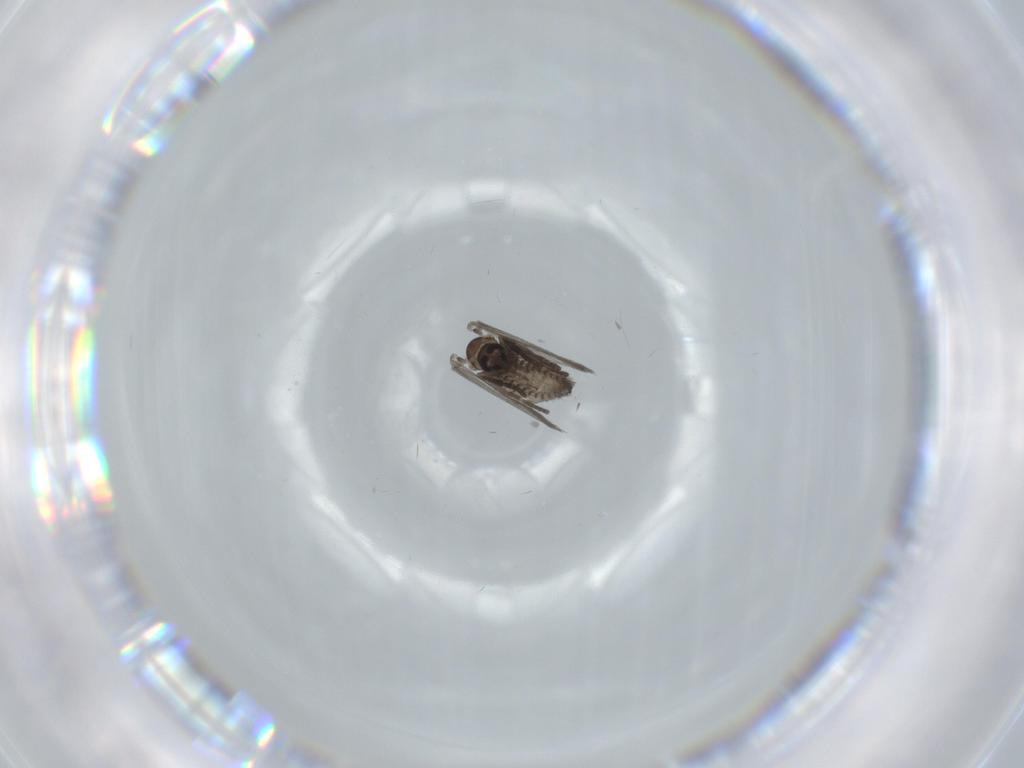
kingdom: Animalia
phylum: Arthropoda
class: Insecta
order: Diptera
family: Psychodidae
